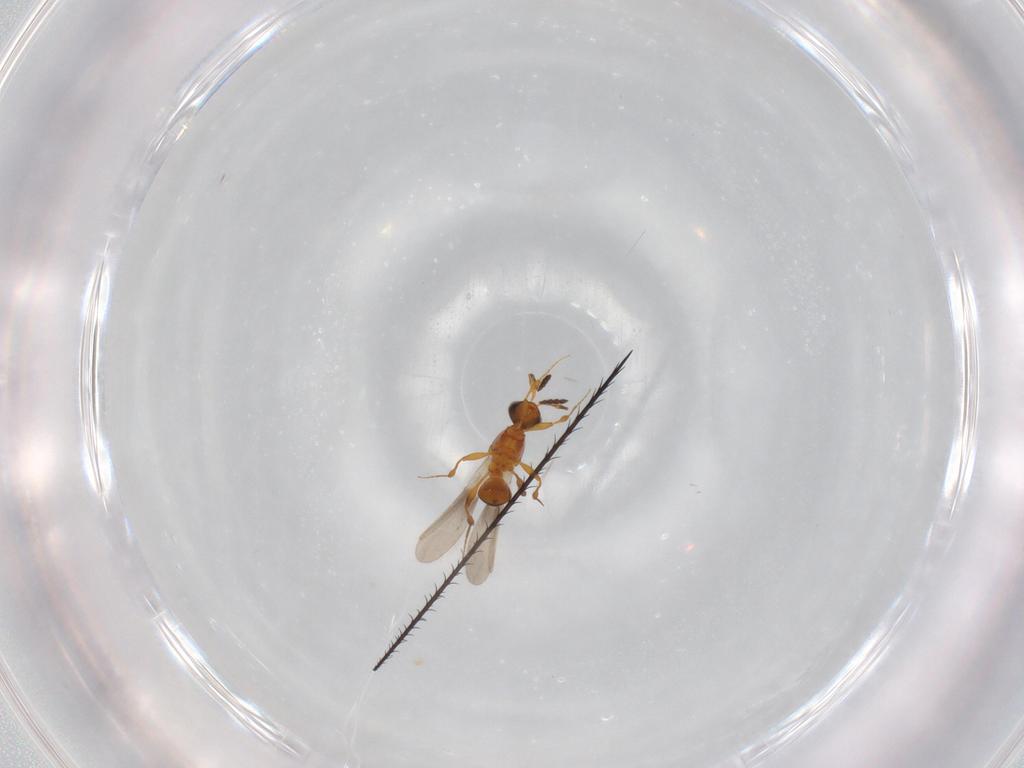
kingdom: Animalia
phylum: Arthropoda
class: Insecta
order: Hymenoptera
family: Platygastridae
